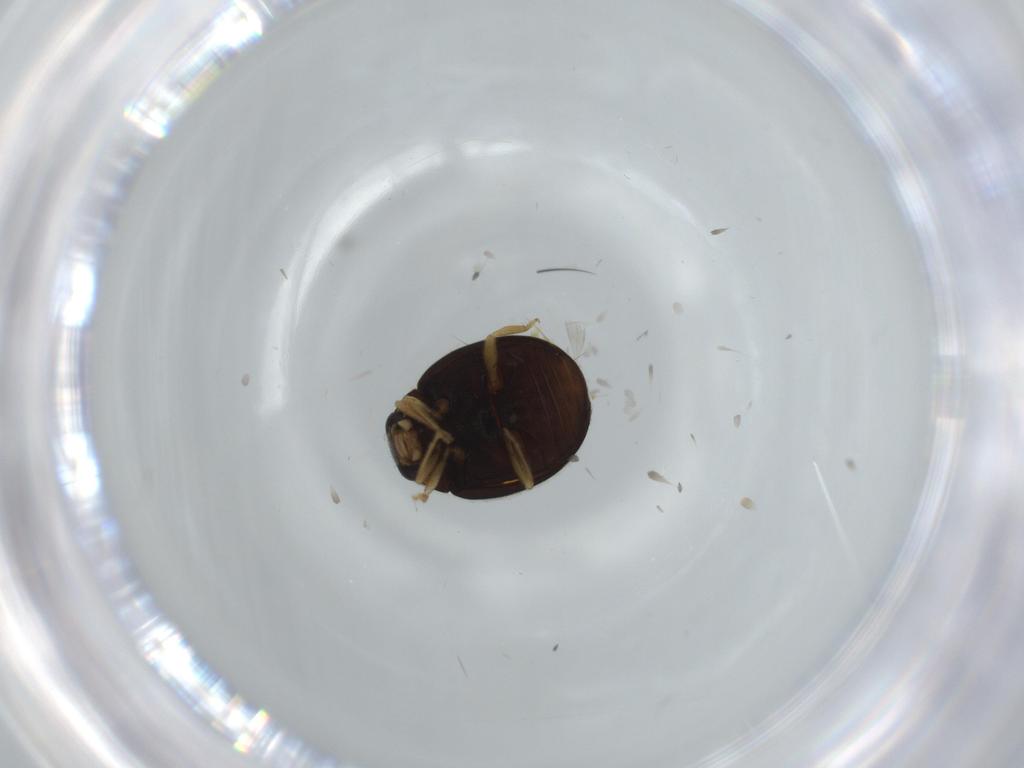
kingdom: Animalia
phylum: Arthropoda
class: Insecta
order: Coleoptera
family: Coccinellidae
